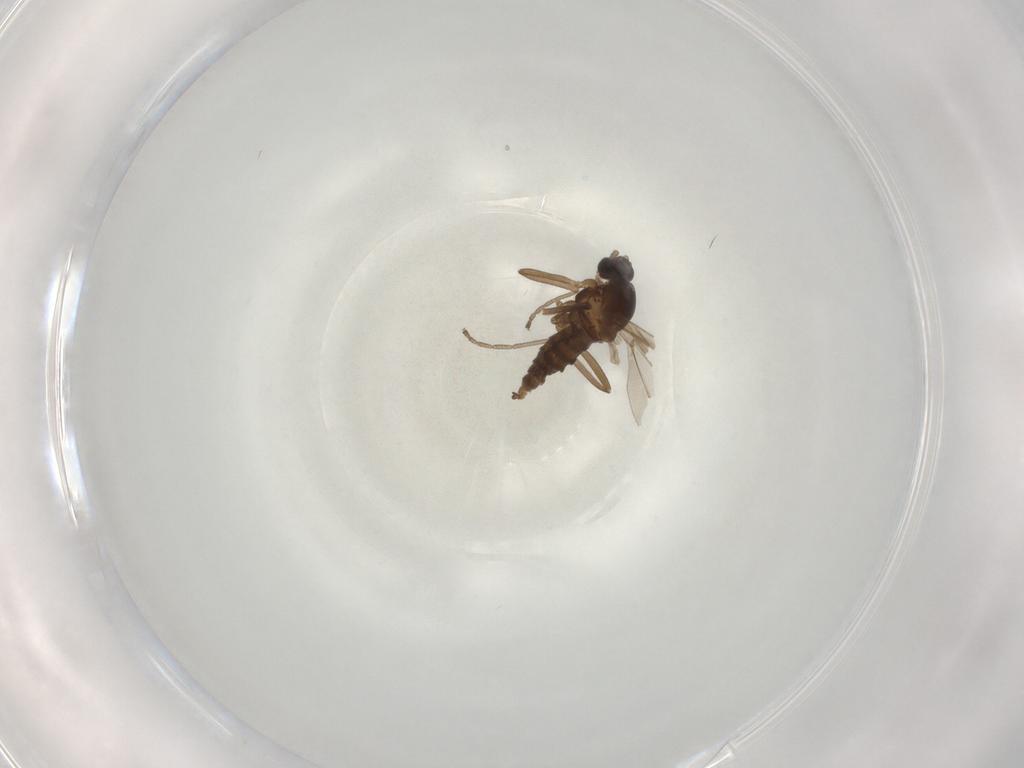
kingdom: Animalia
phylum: Arthropoda
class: Insecta
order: Diptera
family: Cecidomyiidae
